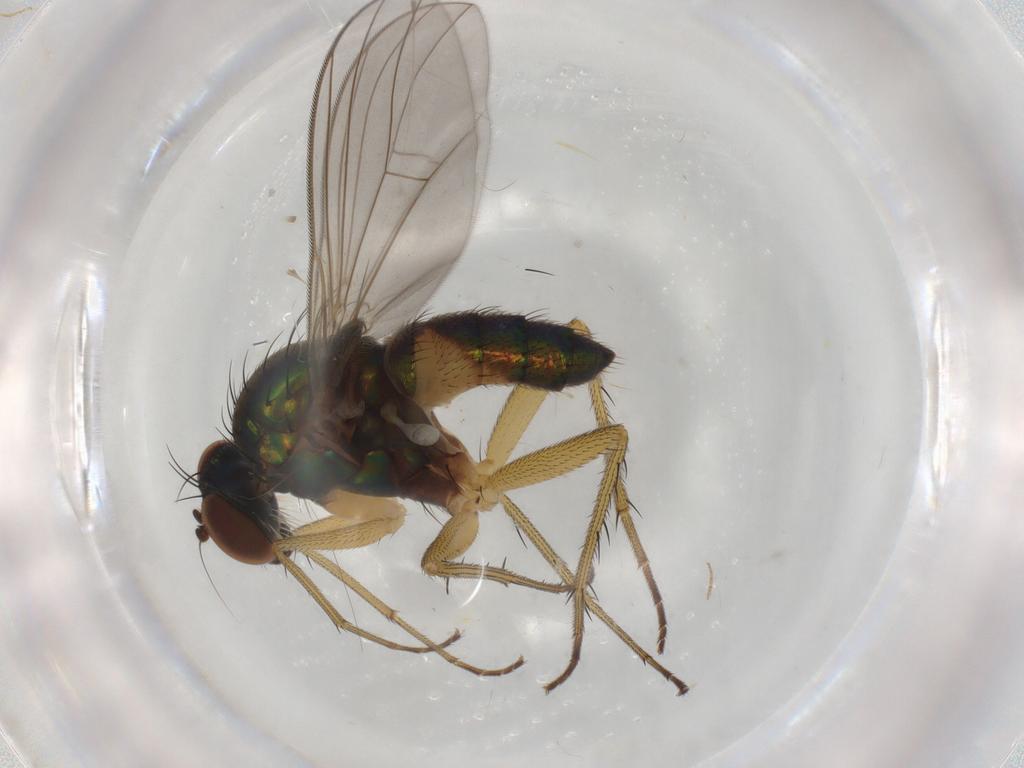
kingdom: Animalia
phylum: Arthropoda
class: Insecta
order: Diptera
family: Dolichopodidae
